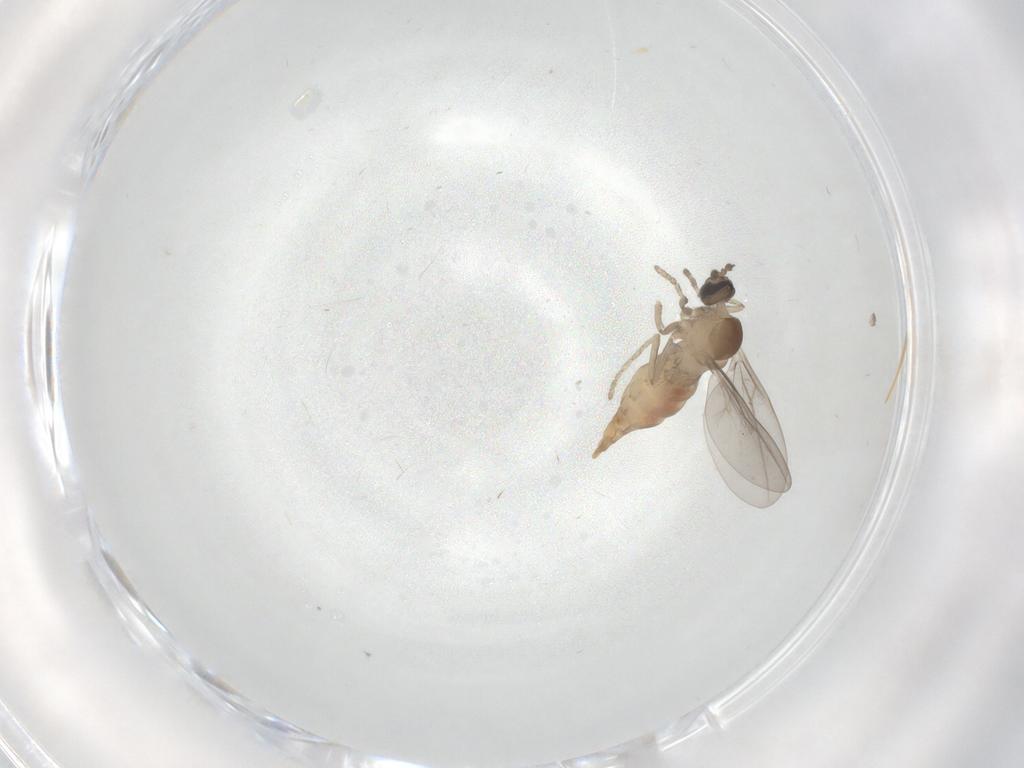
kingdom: Animalia
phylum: Arthropoda
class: Insecta
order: Diptera
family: Cecidomyiidae
